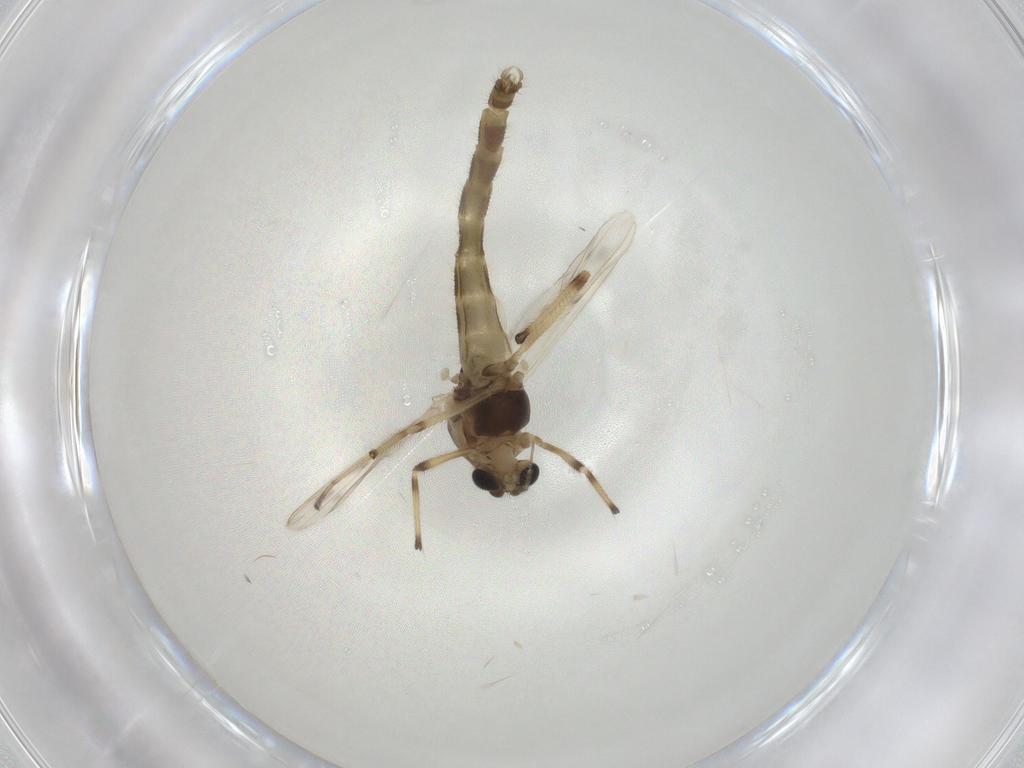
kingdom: Animalia
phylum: Arthropoda
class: Insecta
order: Diptera
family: Chironomidae
